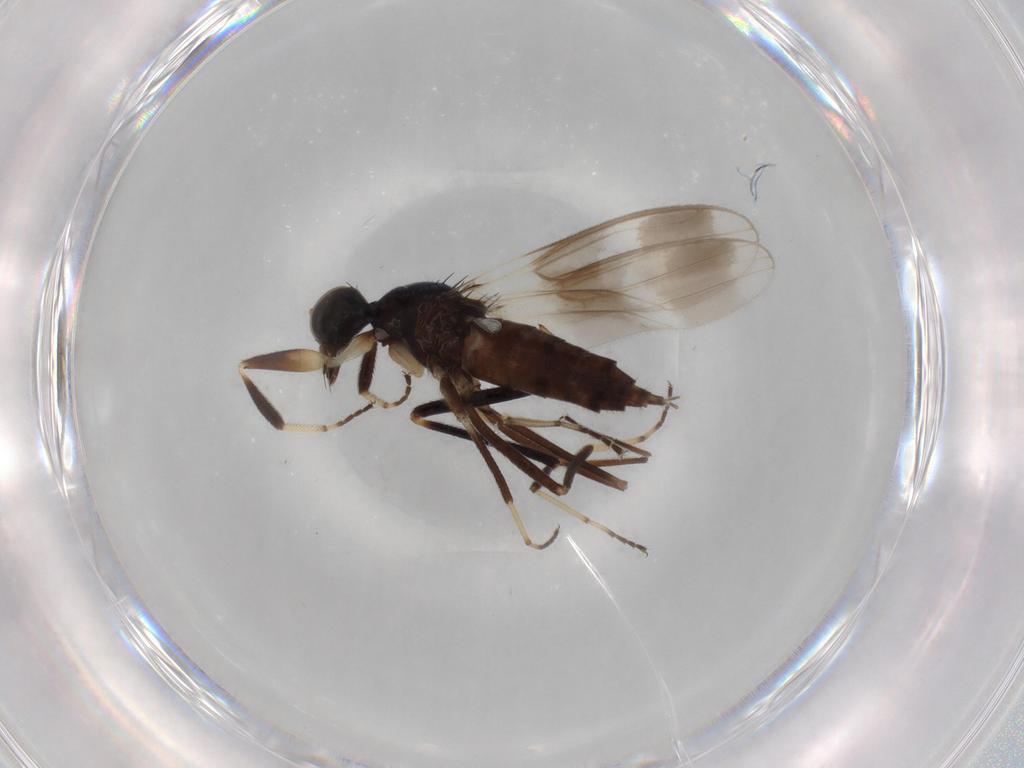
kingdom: Animalia
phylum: Arthropoda
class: Insecta
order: Diptera
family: Hybotidae
